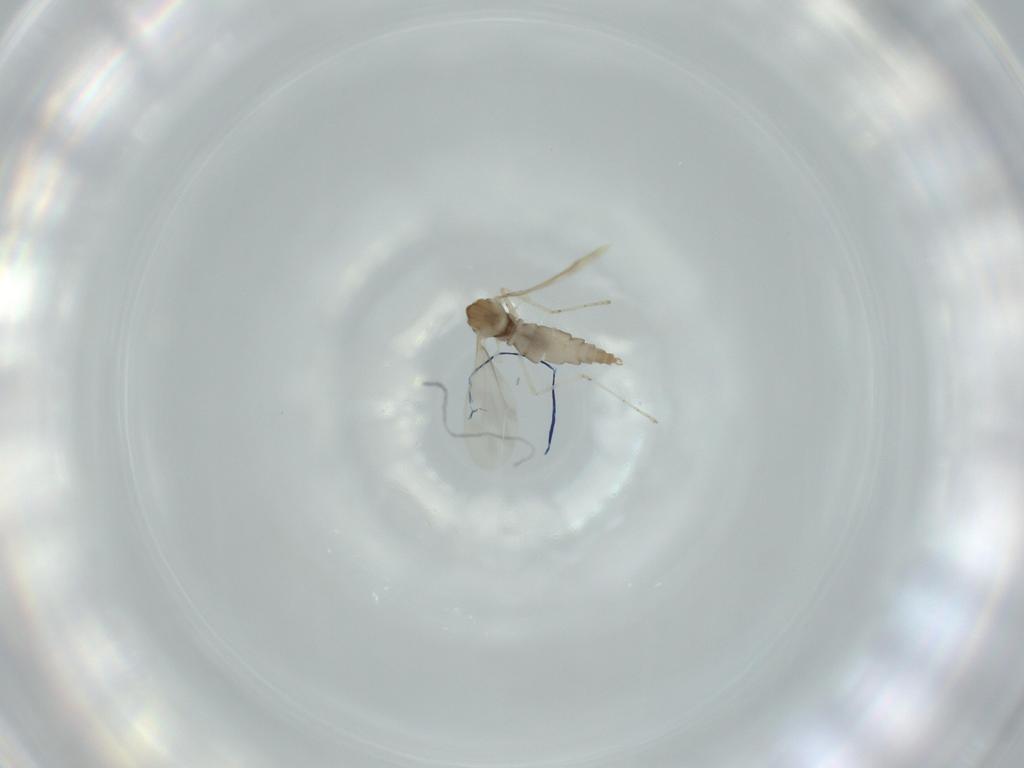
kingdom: Animalia
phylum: Arthropoda
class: Insecta
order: Diptera
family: Cecidomyiidae
